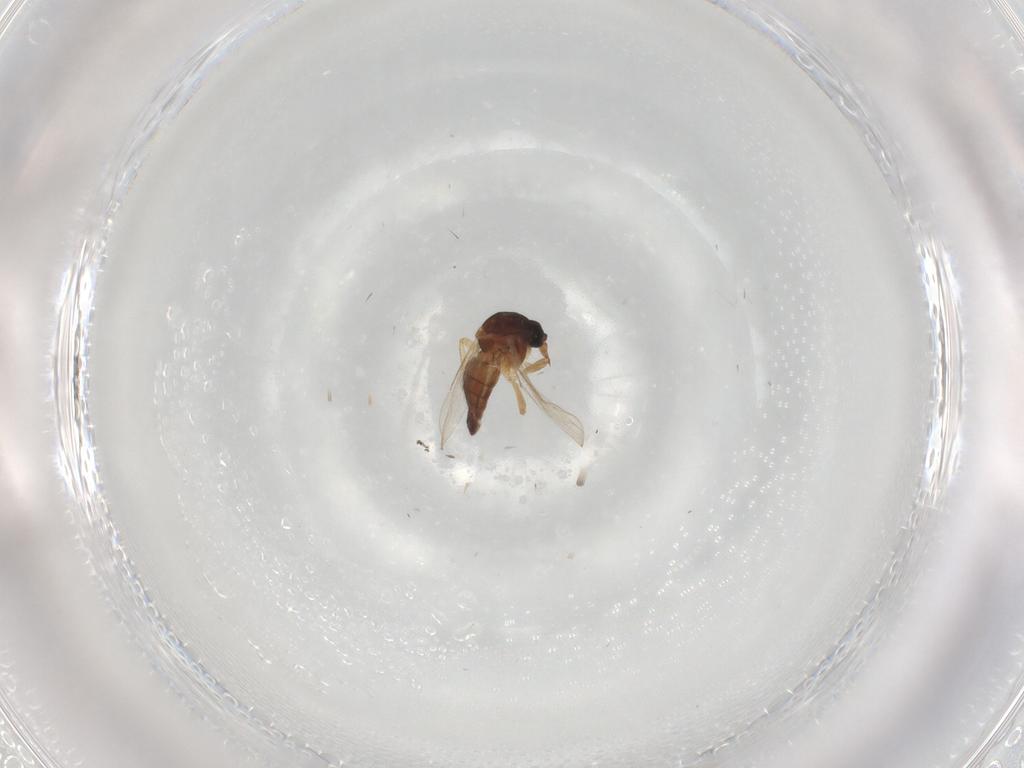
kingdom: Animalia
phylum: Arthropoda
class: Insecta
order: Diptera
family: Ceratopogonidae
